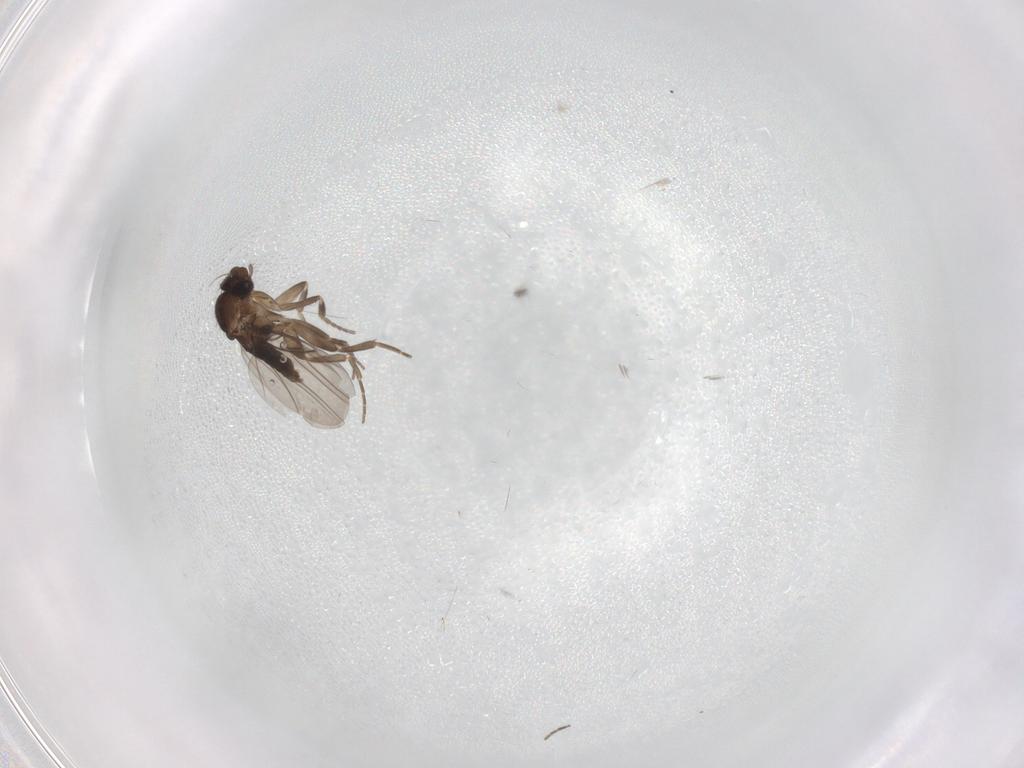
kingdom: Animalia
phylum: Arthropoda
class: Insecta
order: Diptera
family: Phoridae
